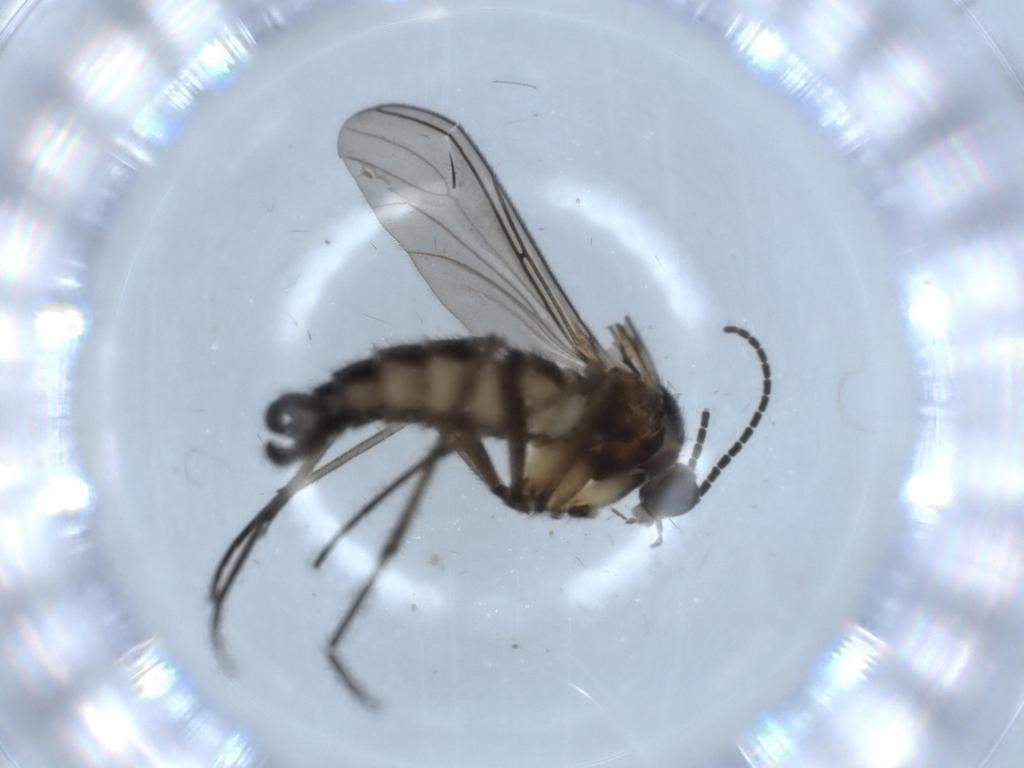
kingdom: Animalia
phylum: Arthropoda
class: Insecta
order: Diptera
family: Sciaridae
